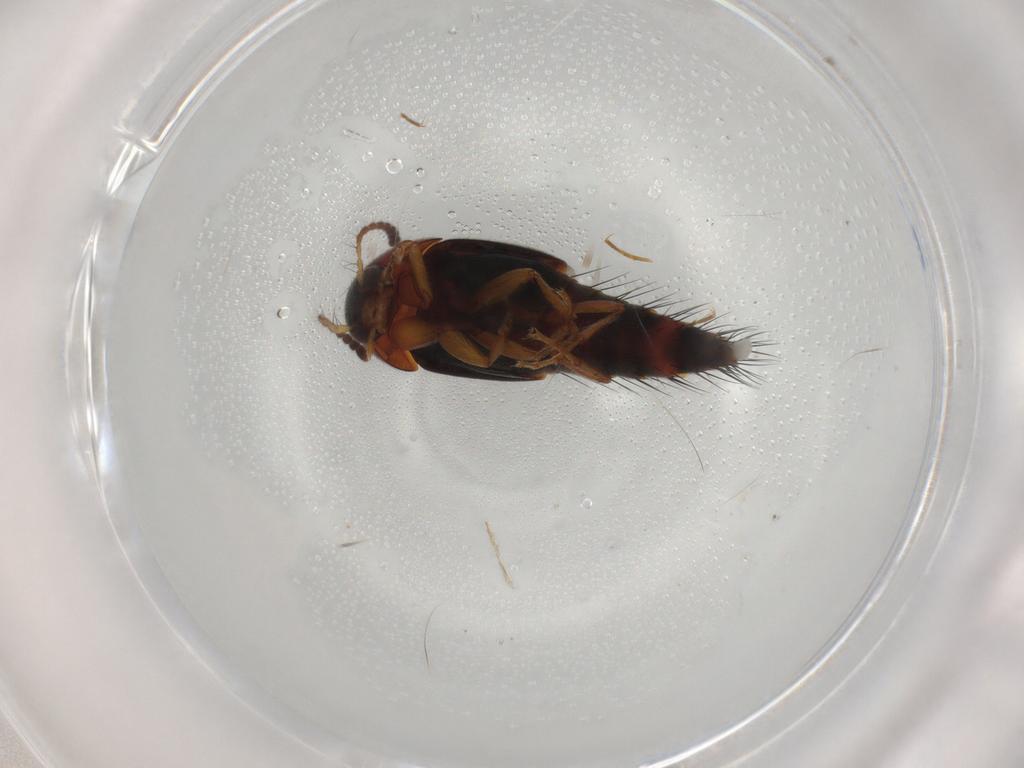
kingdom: Animalia
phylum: Arthropoda
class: Insecta
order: Coleoptera
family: Staphylinidae
